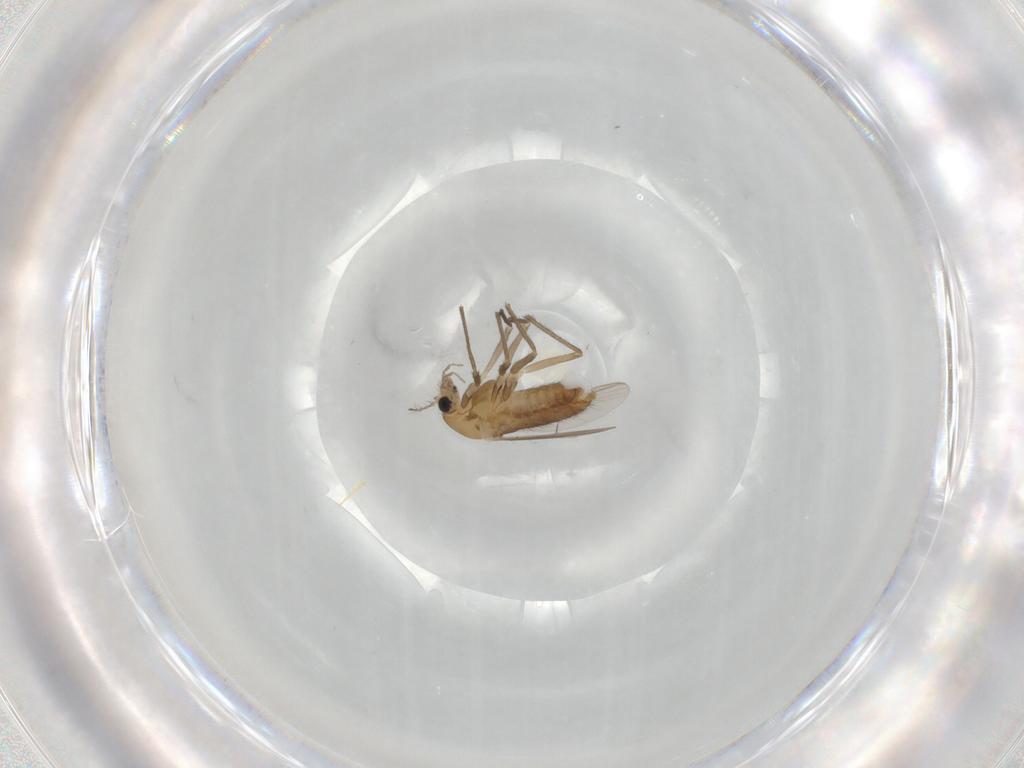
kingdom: Animalia
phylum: Arthropoda
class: Insecta
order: Diptera
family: Chironomidae
